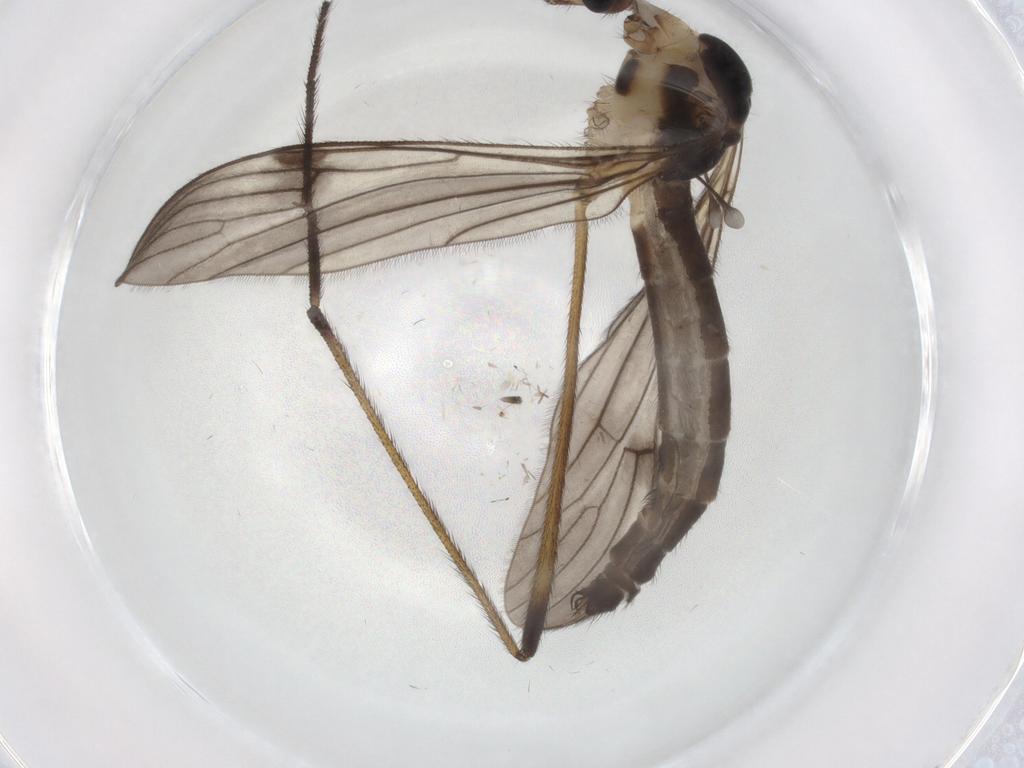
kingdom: Animalia
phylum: Arthropoda
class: Insecta
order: Diptera
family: Limoniidae
